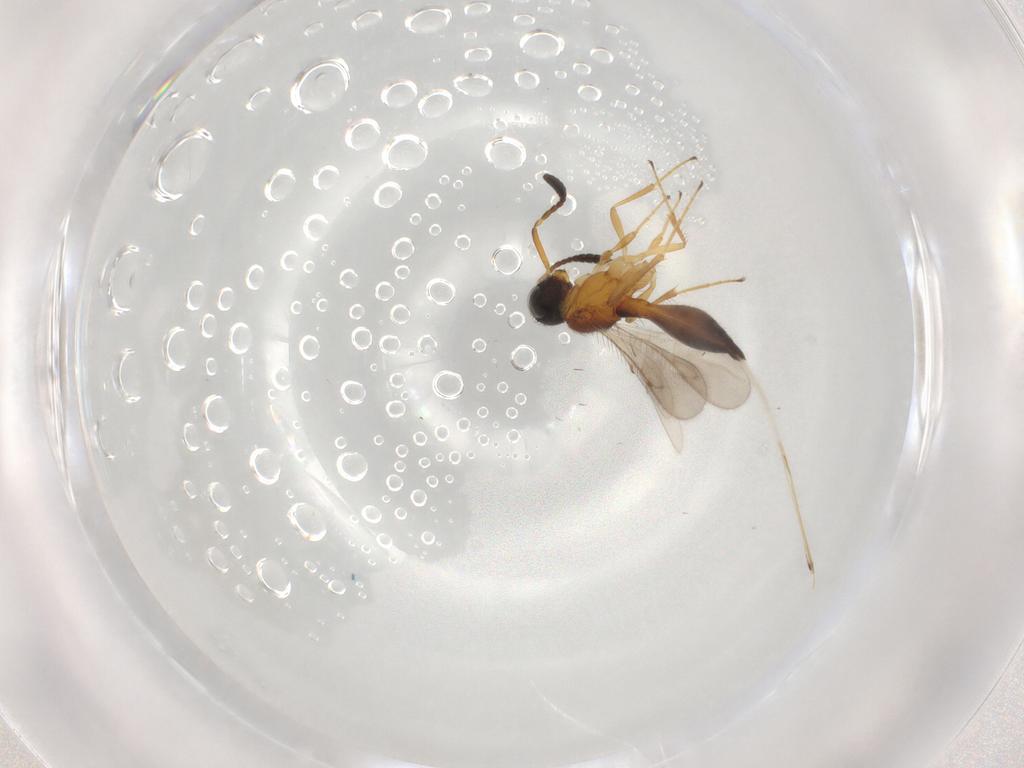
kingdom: Animalia
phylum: Arthropoda
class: Insecta
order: Hymenoptera
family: Scelionidae
